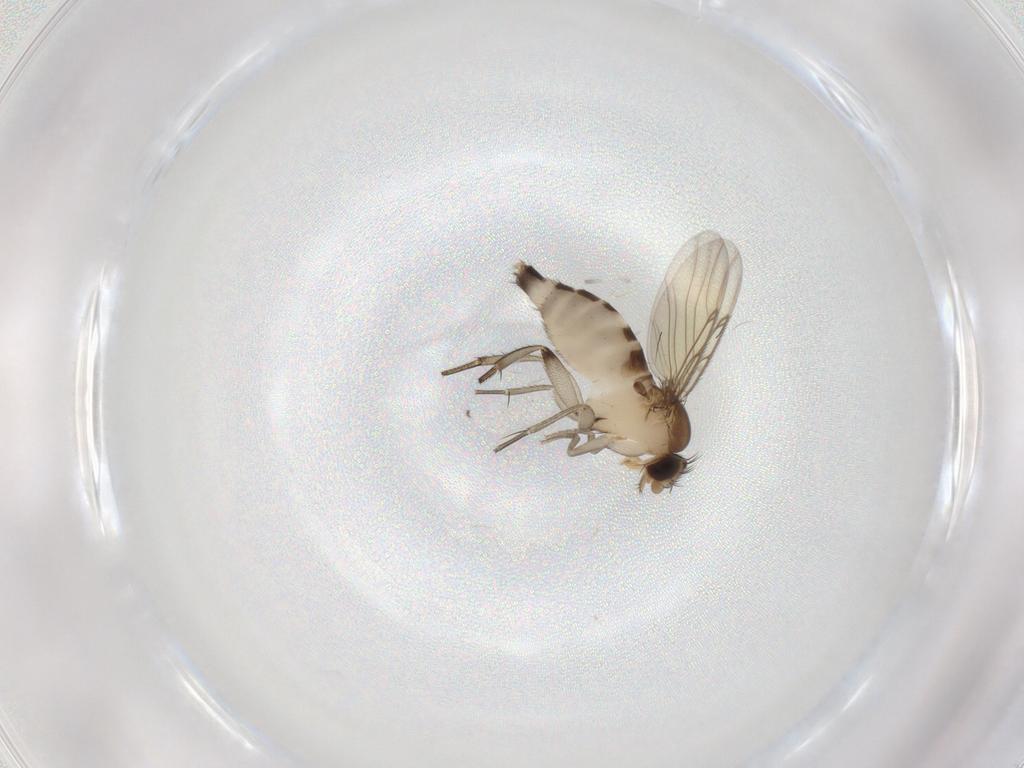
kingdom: Animalia
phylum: Arthropoda
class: Insecta
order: Diptera
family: Phoridae
